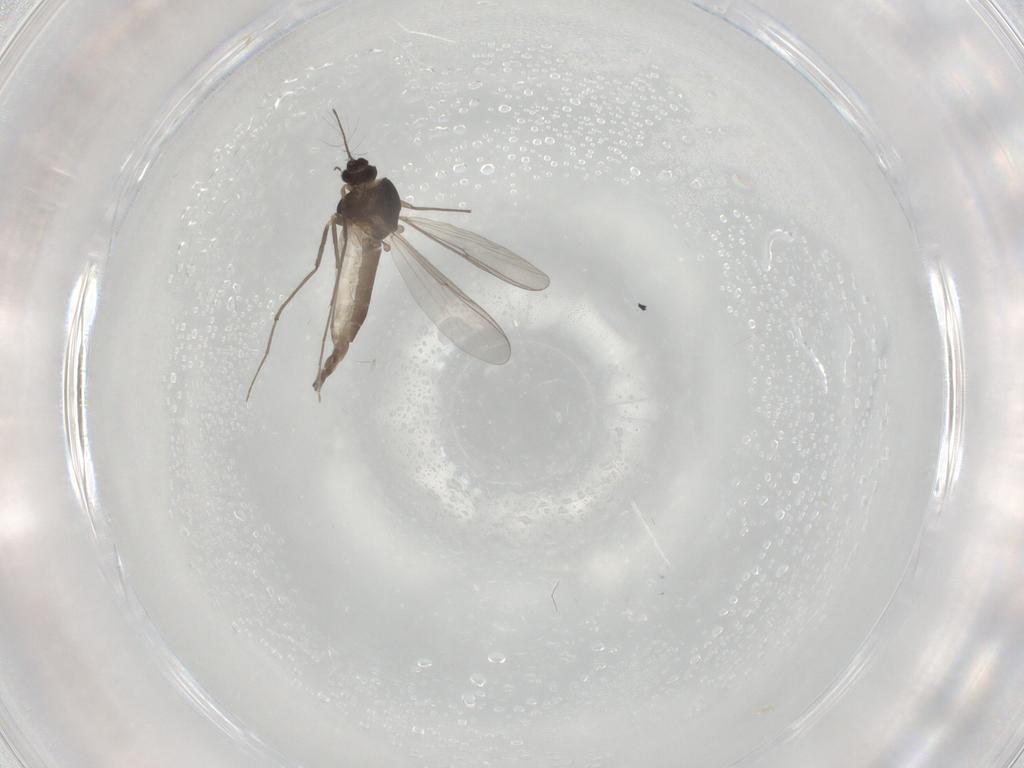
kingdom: Animalia
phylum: Arthropoda
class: Insecta
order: Diptera
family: Chironomidae
